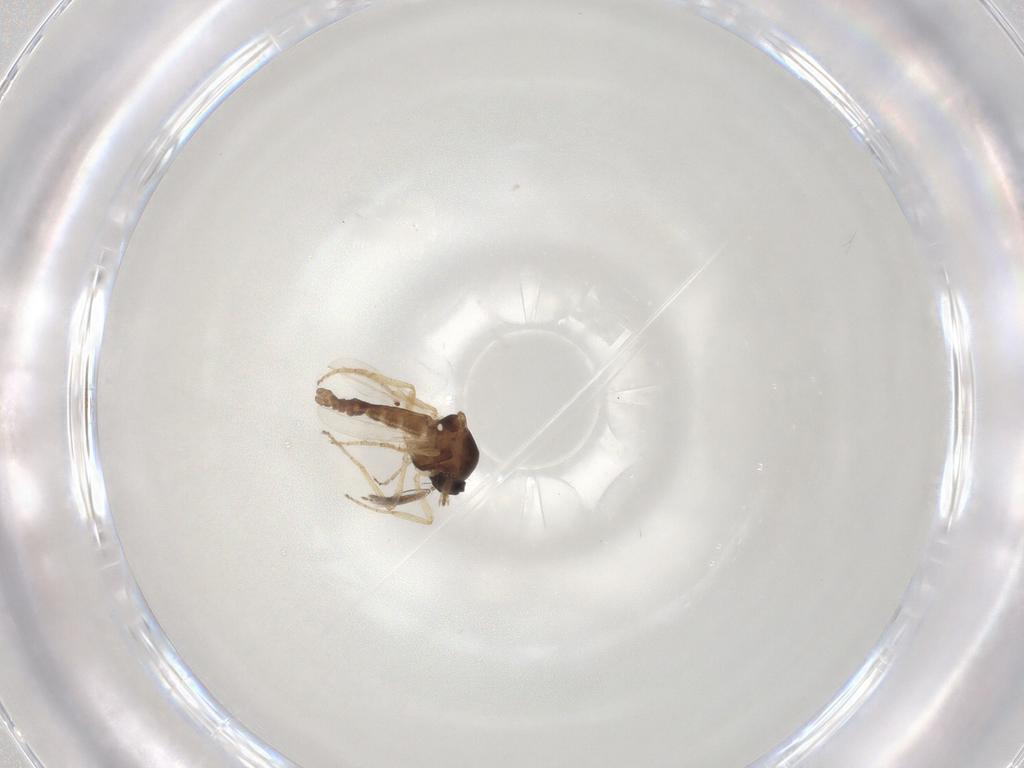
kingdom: Animalia
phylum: Arthropoda
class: Insecta
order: Diptera
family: Ceratopogonidae
